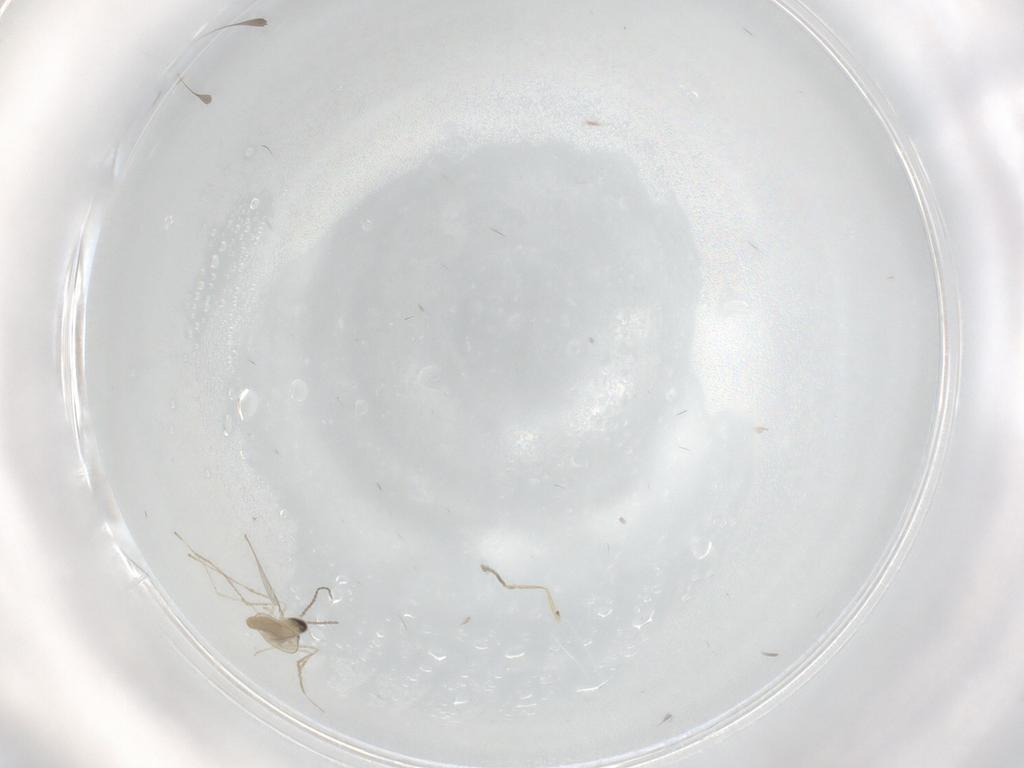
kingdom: Animalia
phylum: Arthropoda
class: Insecta
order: Diptera
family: Cecidomyiidae
